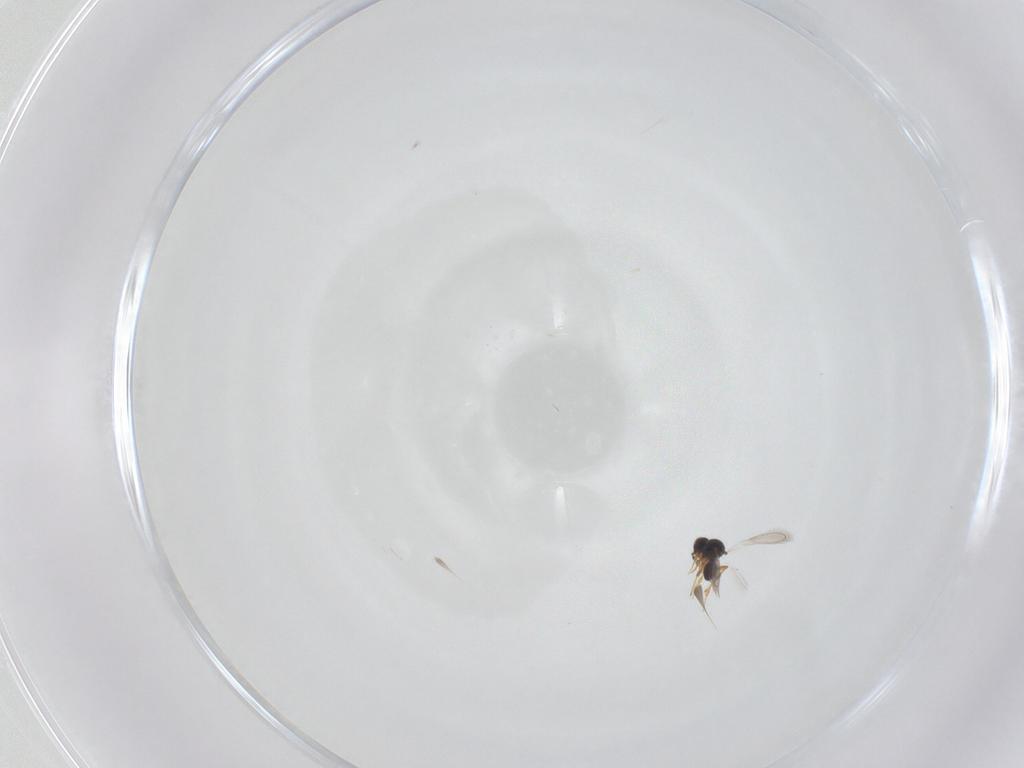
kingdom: Animalia
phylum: Arthropoda
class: Insecta
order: Hymenoptera
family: Platygastridae
